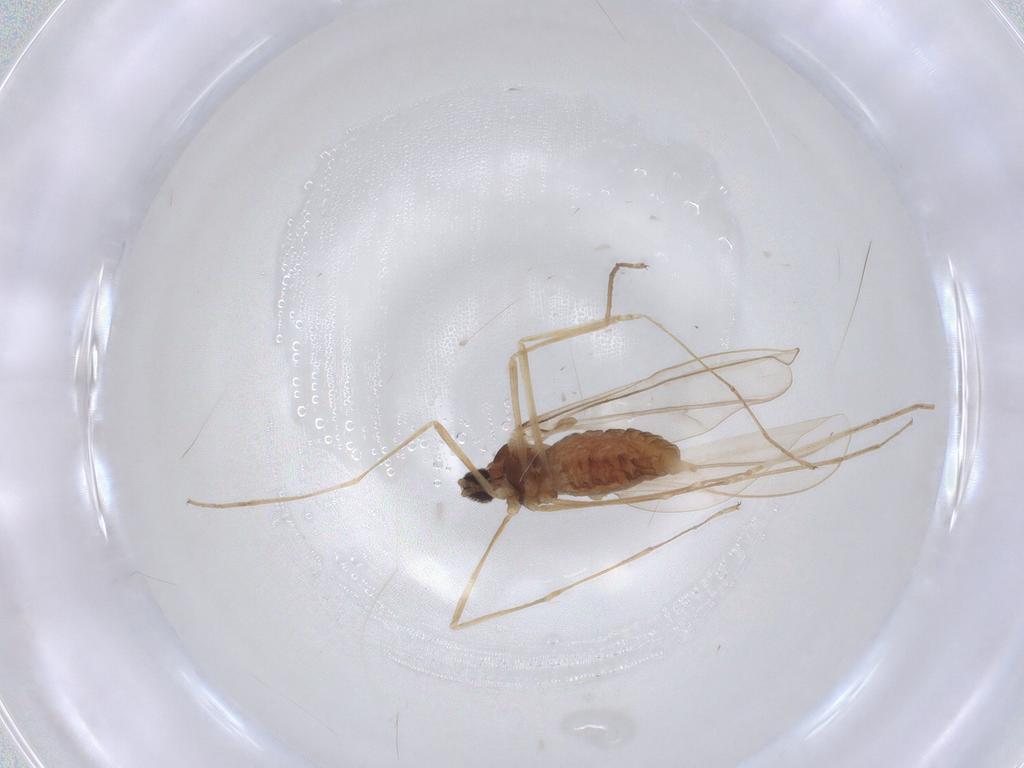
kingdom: Animalia
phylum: Arthropoda
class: Insecta
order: Diptera
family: Cecidomyiidae
